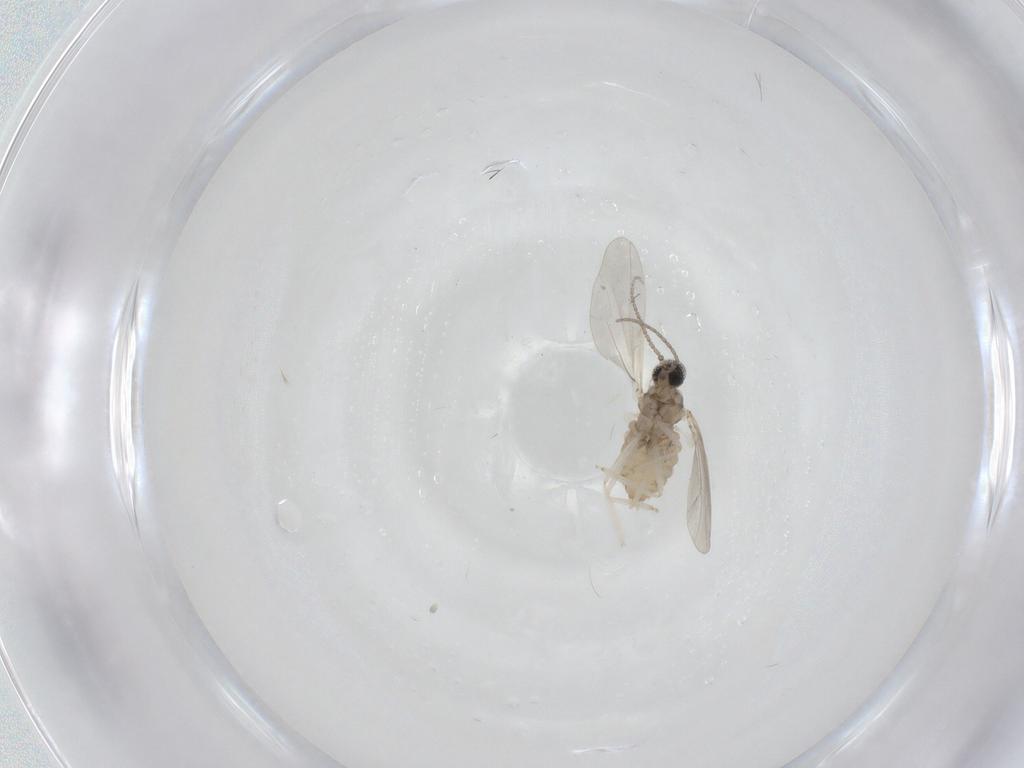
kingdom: Animalia
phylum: Arthropoda
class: Insecta
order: Diptera
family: Cecidomyiidae
